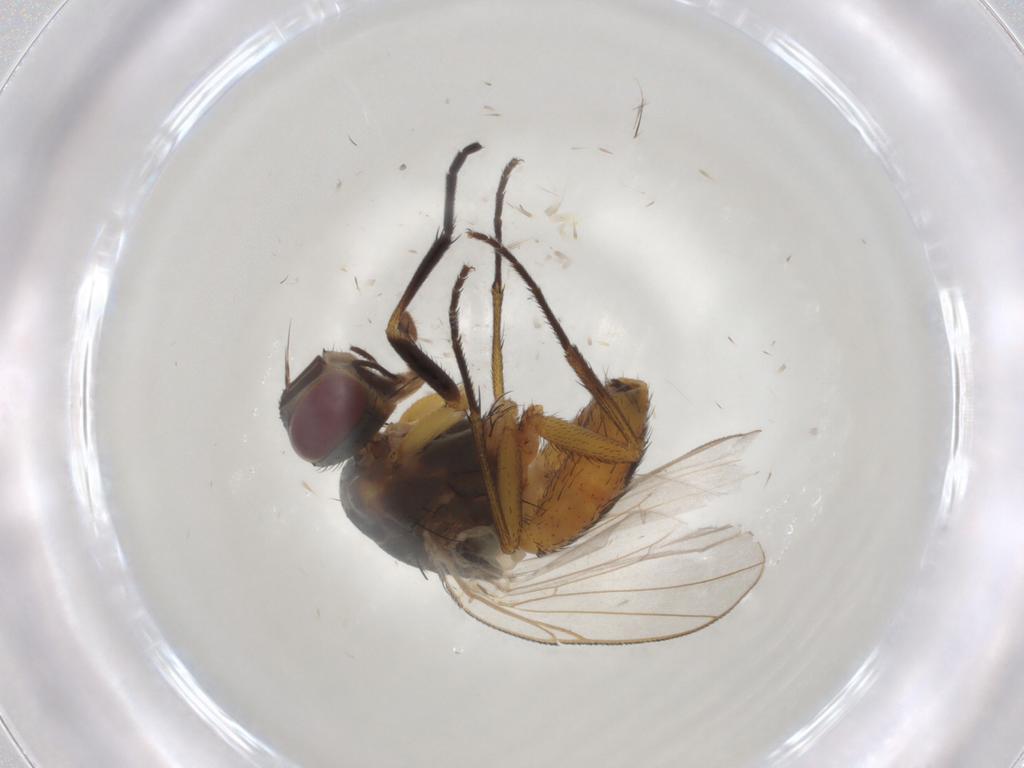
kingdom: Animalia
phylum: Arthropoda
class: Insecta
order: Diptera
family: Muscidae
